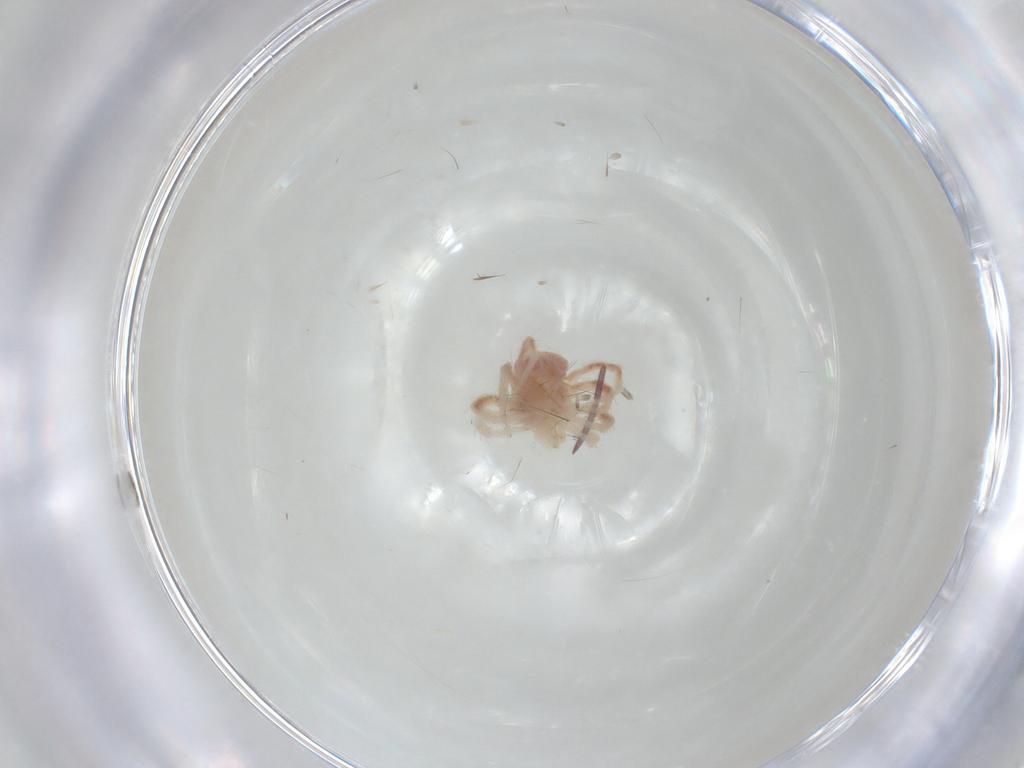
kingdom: Animalia
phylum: Arthropoda
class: Arachnida
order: Trombidiformes
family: Anystidae
